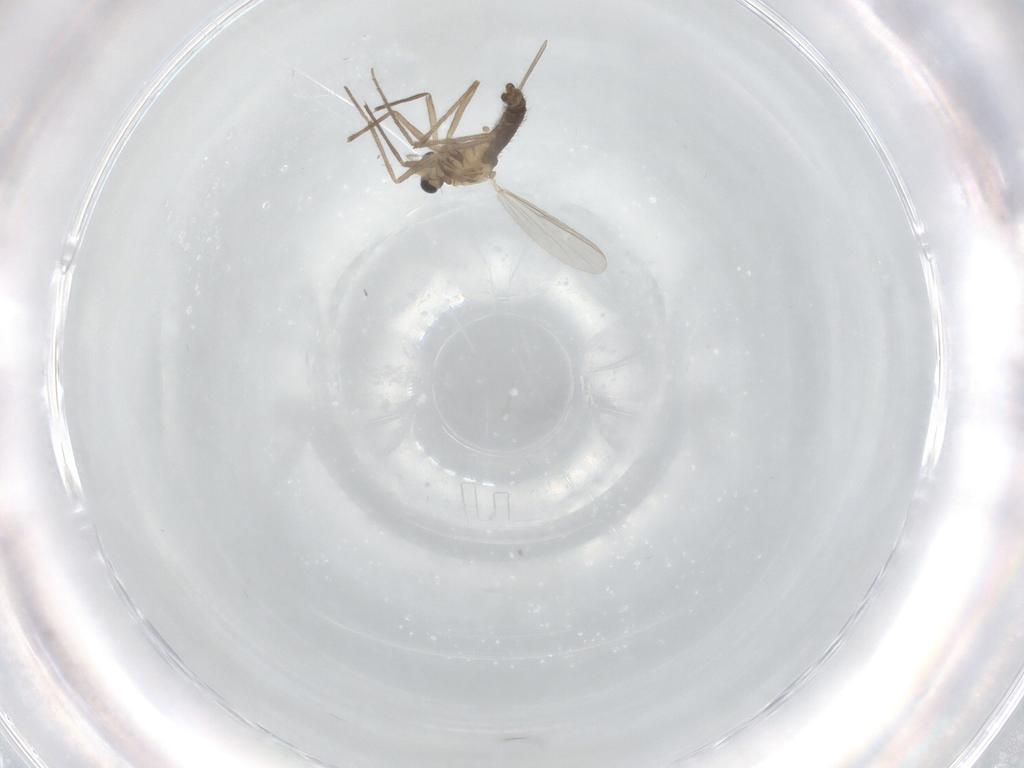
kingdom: Animalia
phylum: Arthropoda
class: Insecta
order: Diptera
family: Chironomidae
